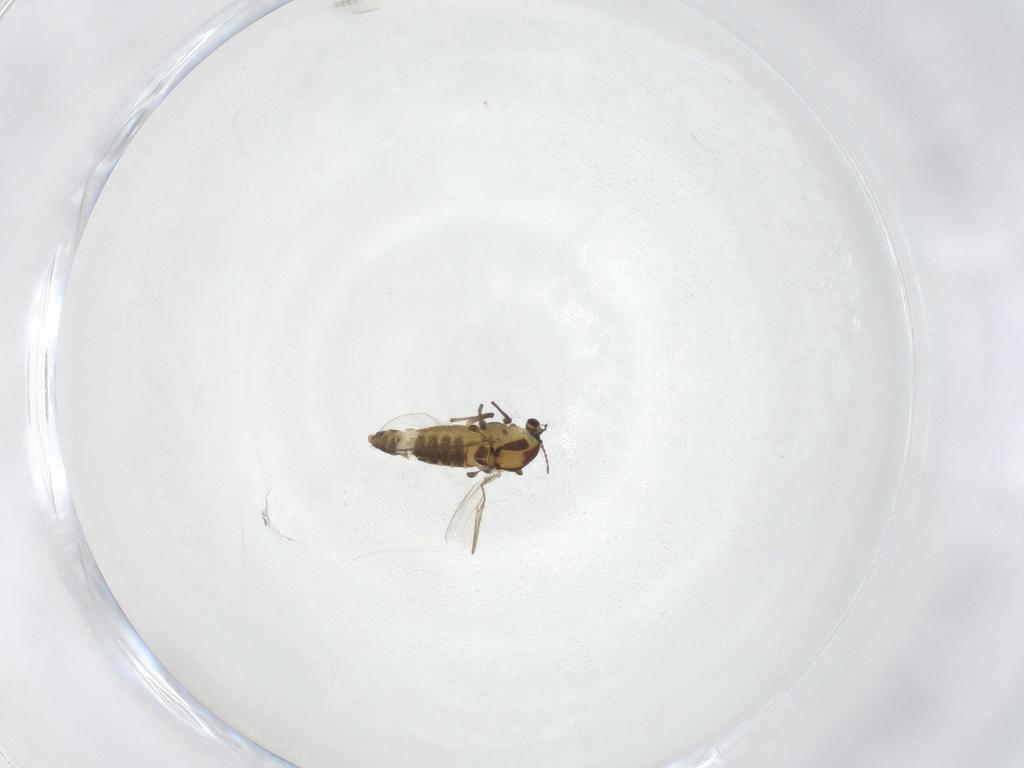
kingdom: Animalia
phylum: Arthropoda
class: Insecta
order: Diptera
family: Chironomidae
